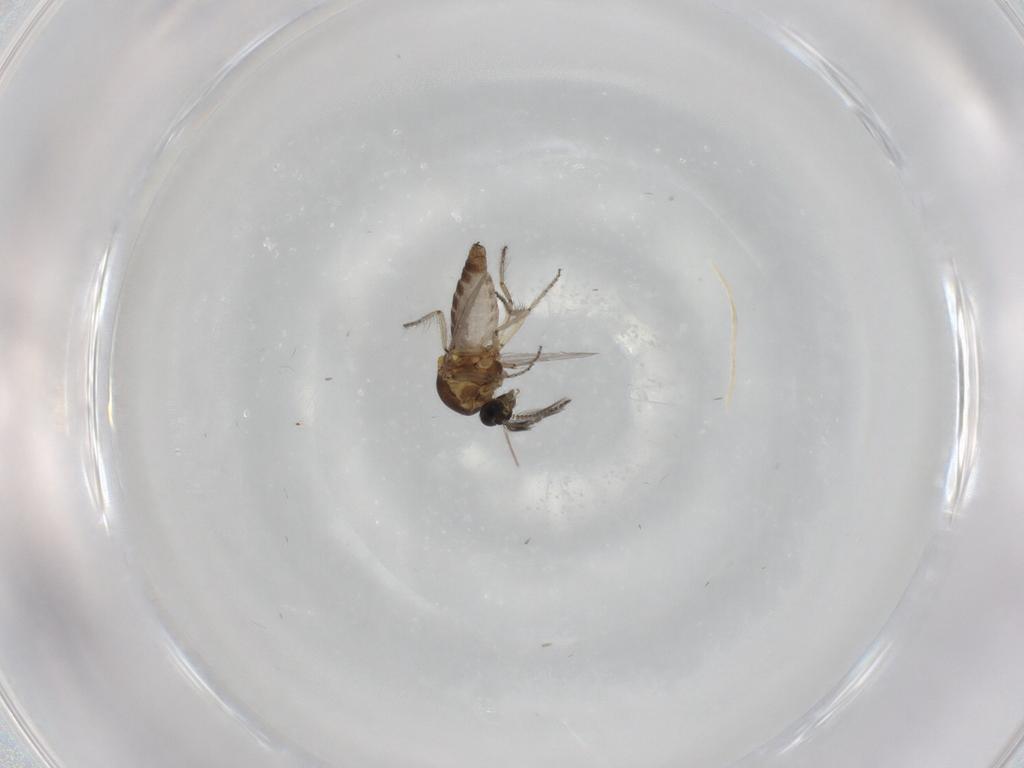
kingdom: Animalia
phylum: Arthropoda
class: Insecta
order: Diptera
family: Ceratopogonidae
